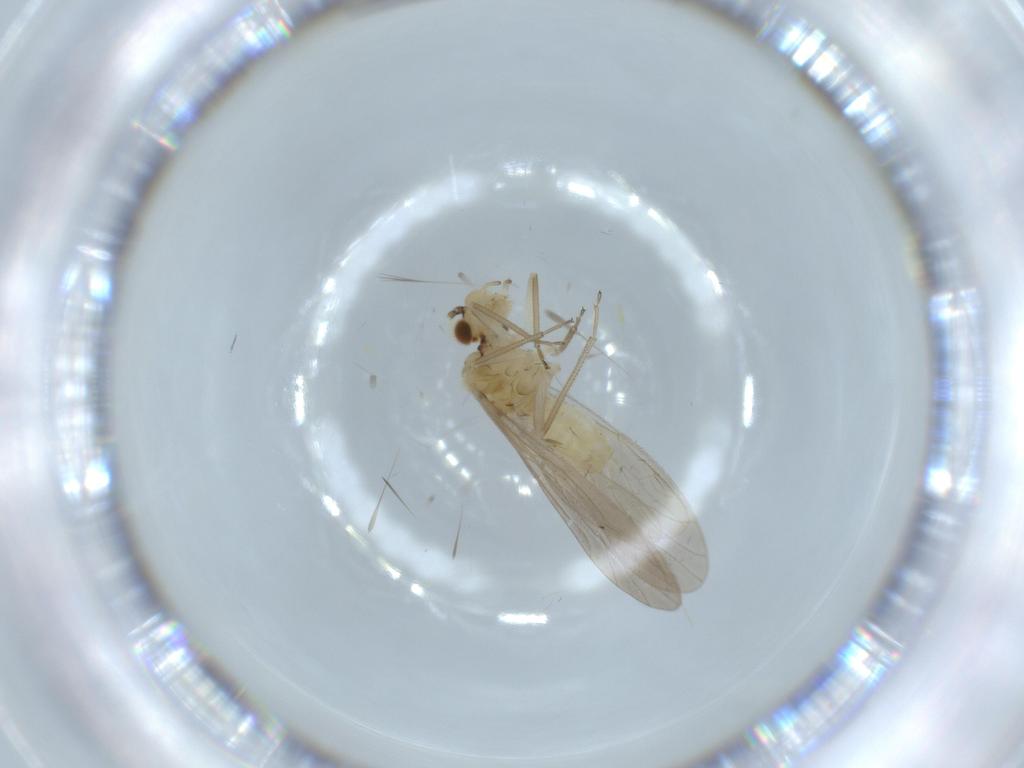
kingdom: Animalia
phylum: Arthropoda
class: Insecta
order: Psocodea
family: Caeciliusidae
